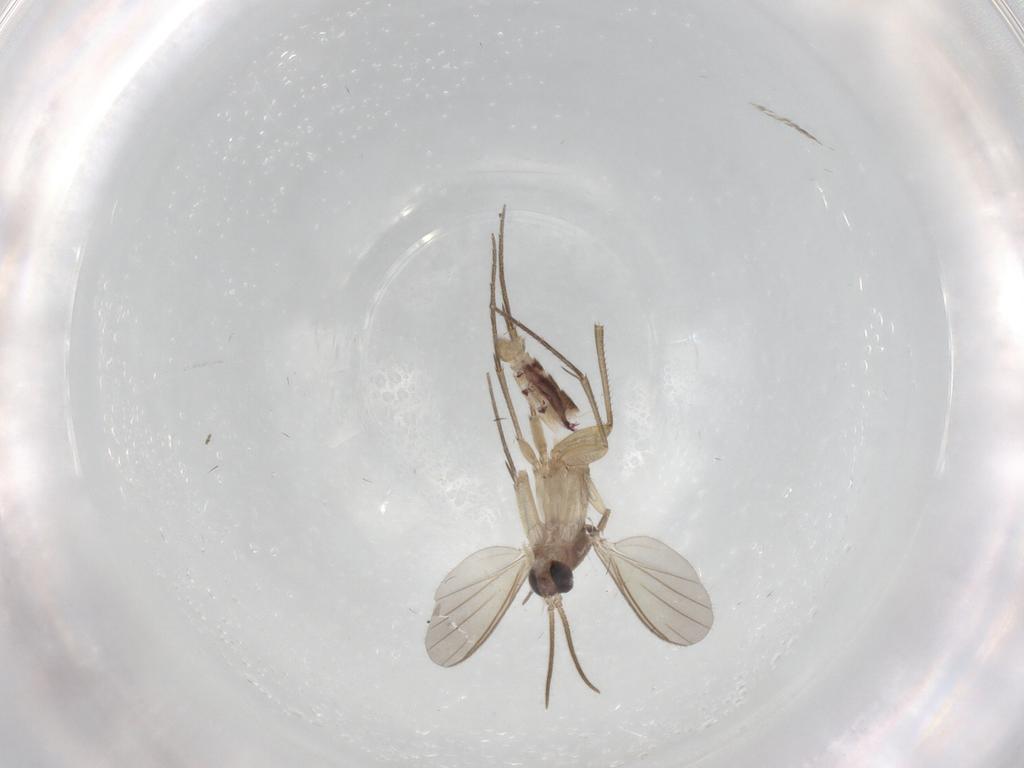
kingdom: Animalia
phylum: Arthropoda
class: Insecta
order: Diptera
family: Mycetophilidae
